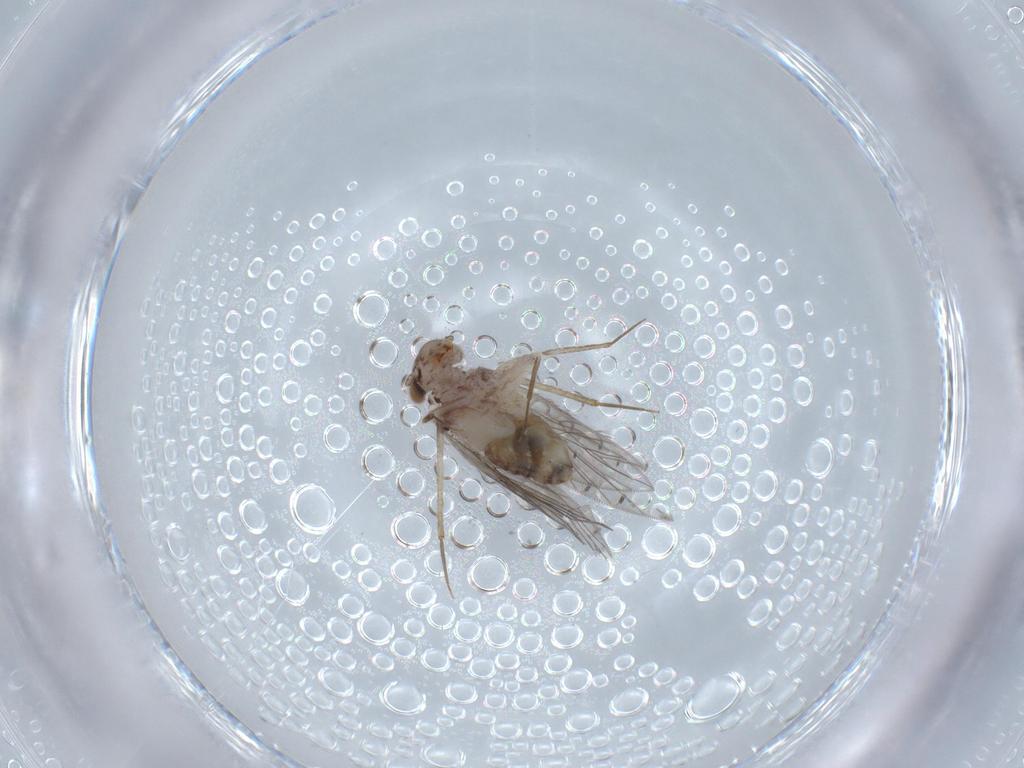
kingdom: Animalia
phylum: Arthropoda
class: Insecta
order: Psocodea
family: Lepidopsocidae
